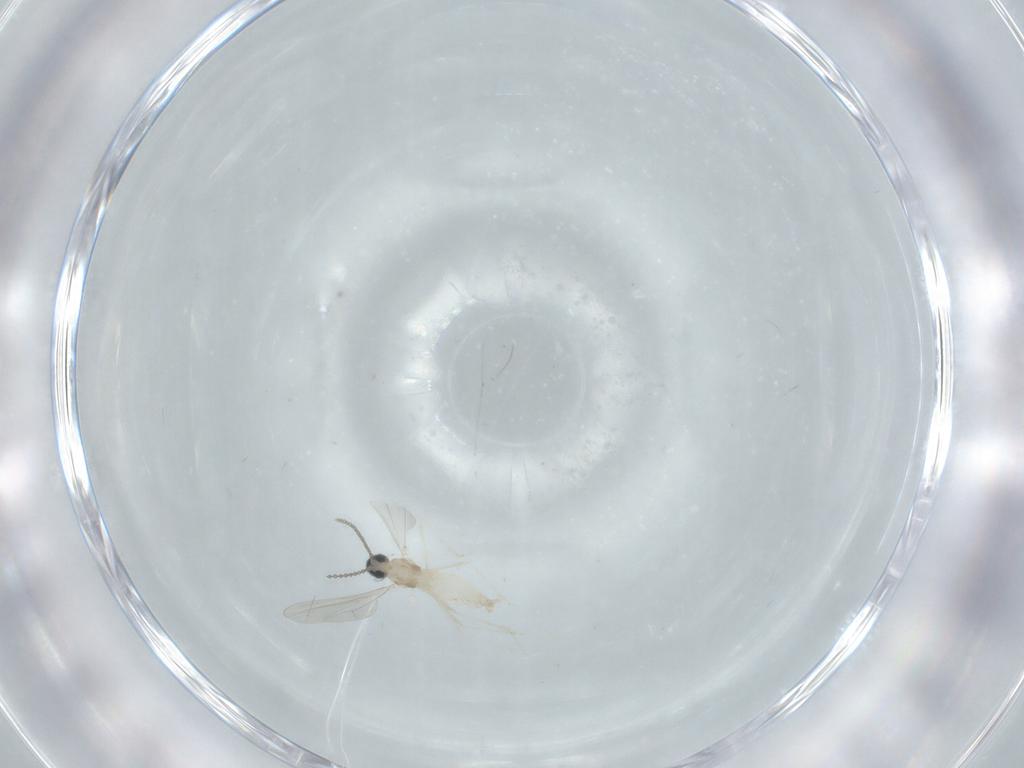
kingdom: Animalia
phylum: Arthropoda
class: Insecta
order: Diptera
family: Cecidomyiidae
